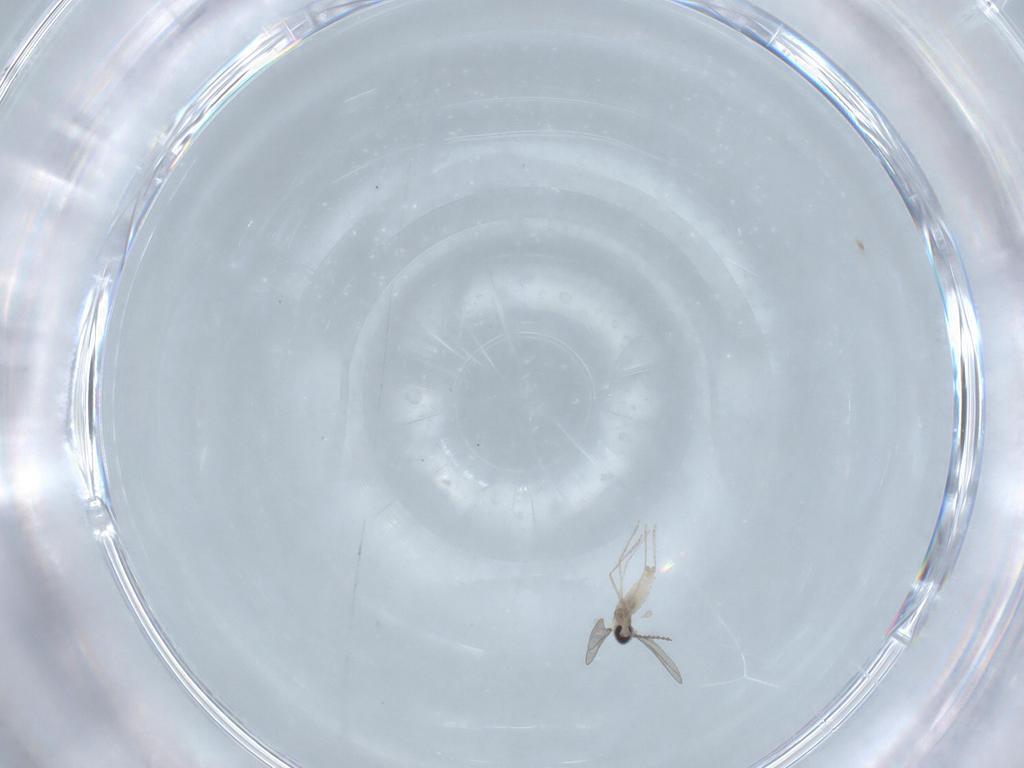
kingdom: Animalia
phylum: Arthropoda
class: Insecta
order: Diptera
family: Cecidomyiidae
